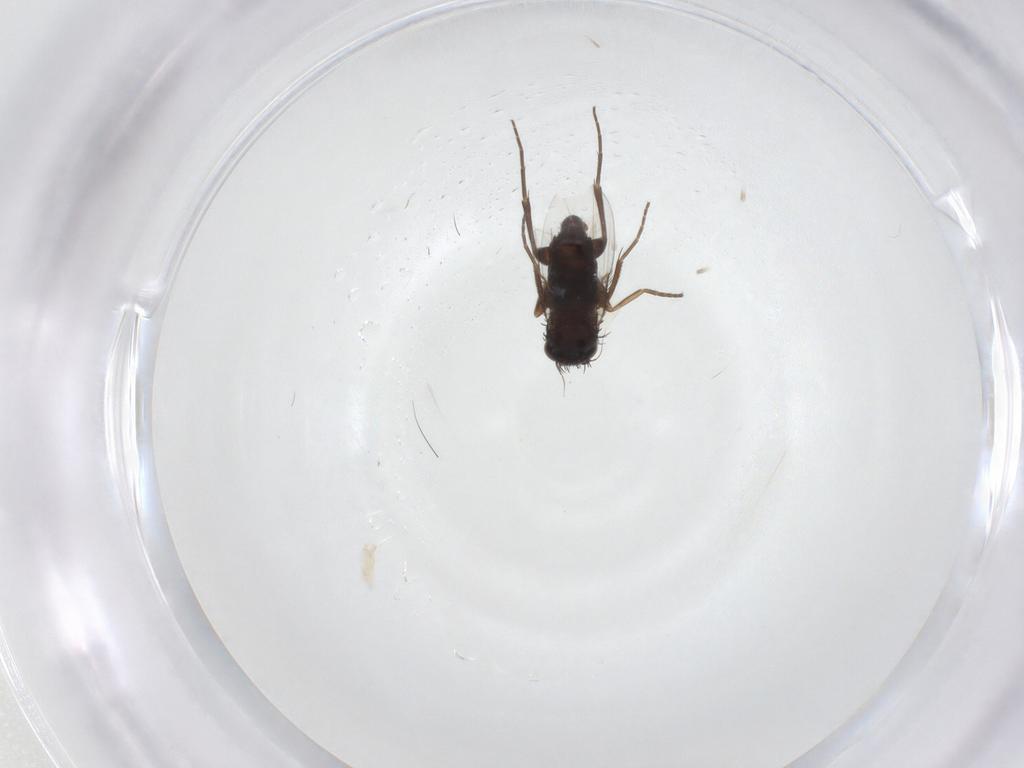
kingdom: Animalia
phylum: Arthropoda
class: Insecta
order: Diptera
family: Phoridae
